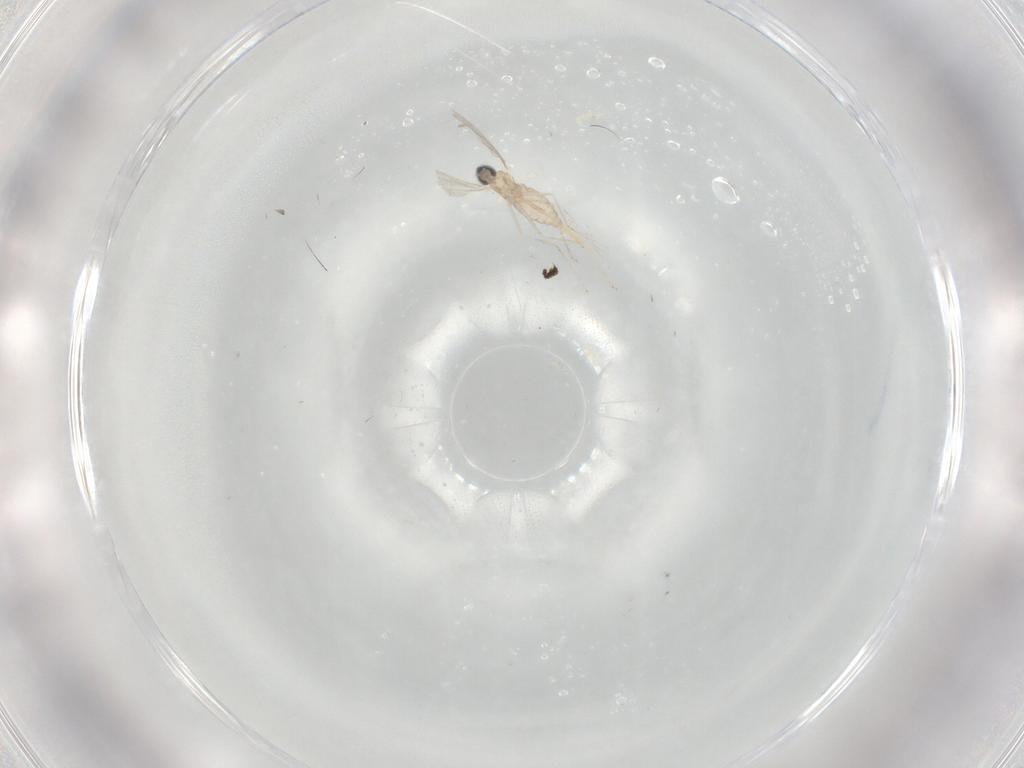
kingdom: Animalia
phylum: Arthropoda
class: Insecta
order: Diptera
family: Cecidomyiidae
